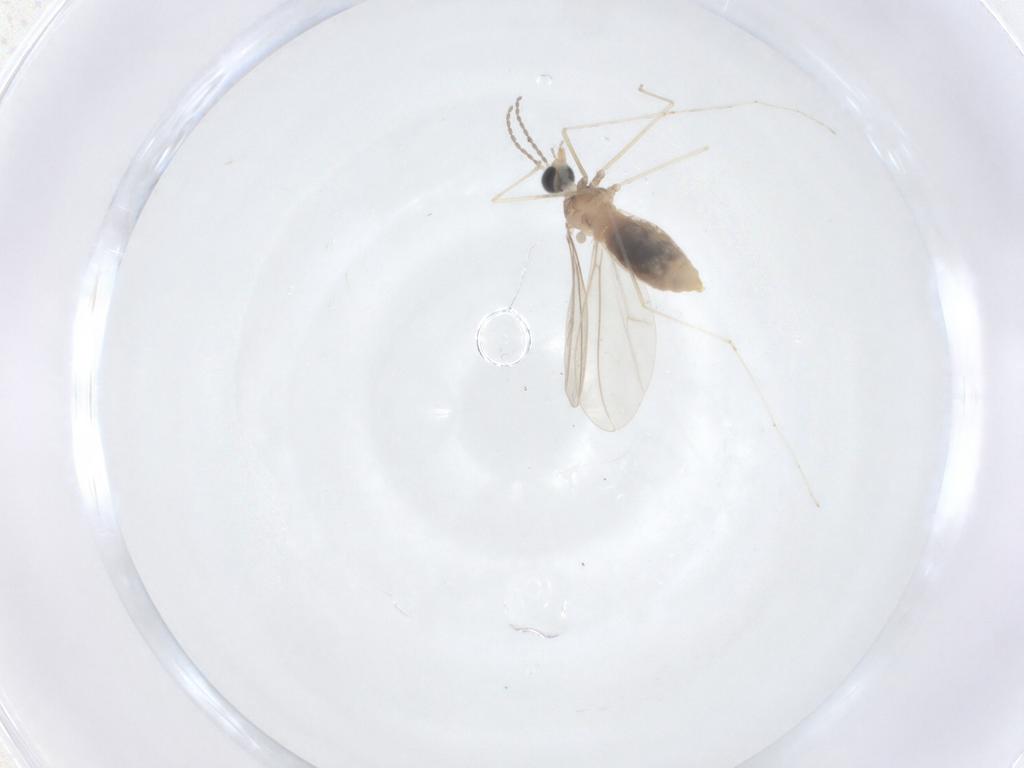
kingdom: Animalia
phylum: Arthropoda
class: Insecta
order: Diptera
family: Cecidomyiidae
